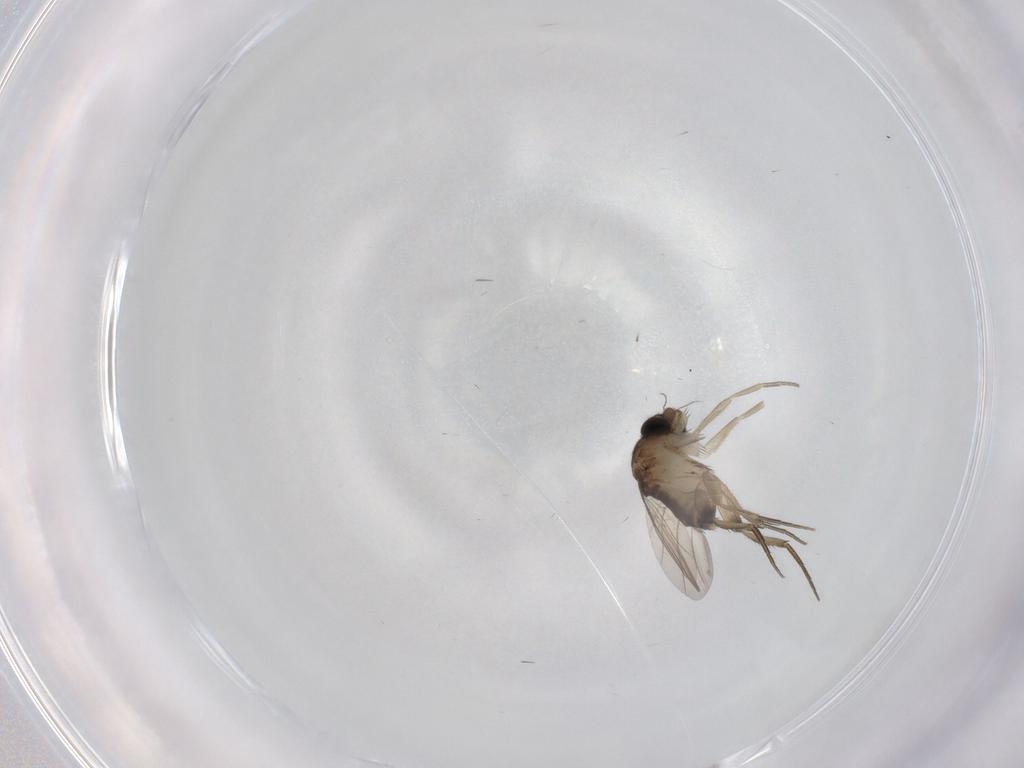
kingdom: Animalia
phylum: Arthropoda
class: Insecta
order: Diptera
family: Phoridae
